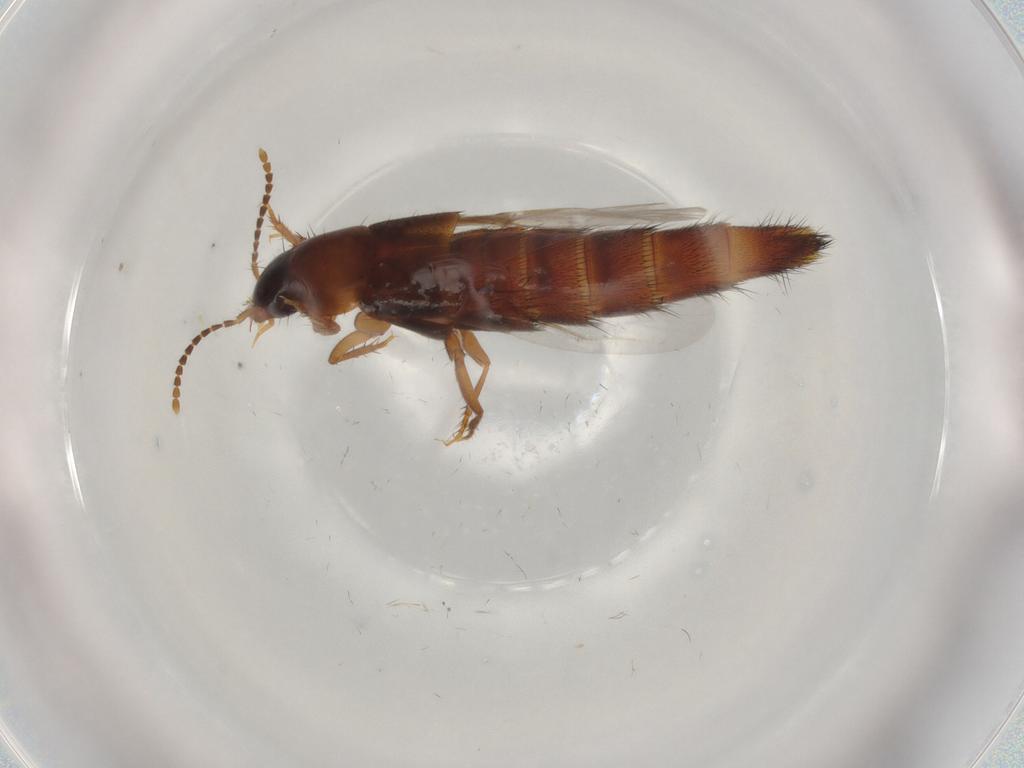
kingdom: Animalia
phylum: Arthropoda
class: Insecta
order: Coleoptera
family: Staphylinidae
